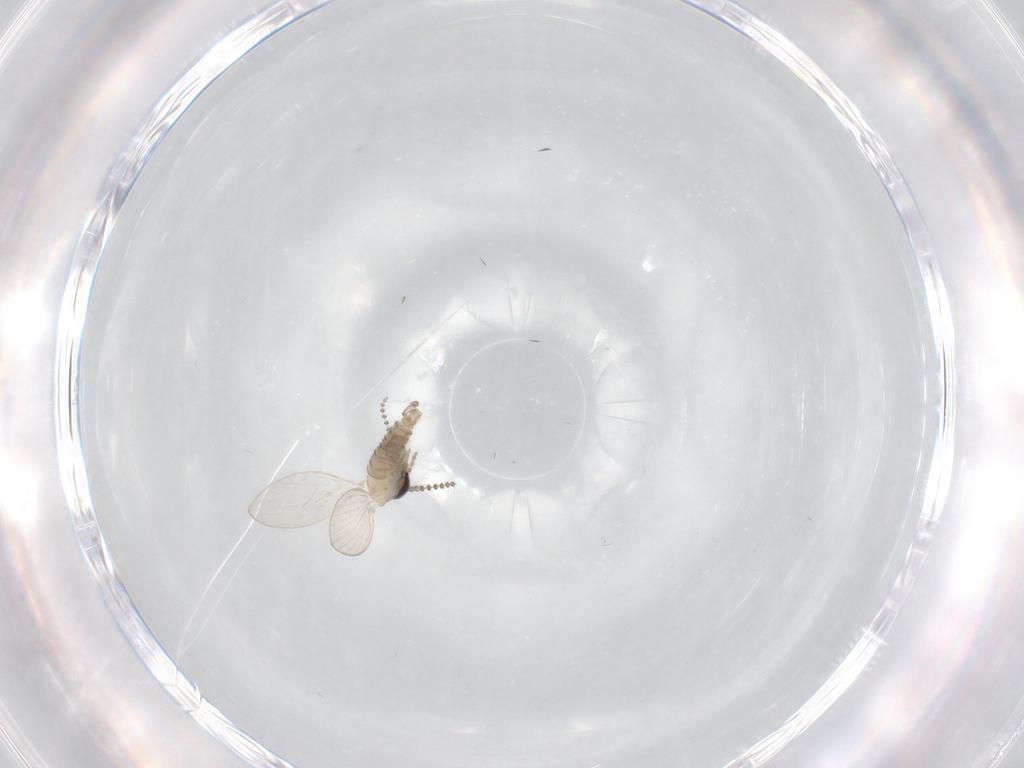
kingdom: Animalia
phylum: Arthropoda
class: Insecta
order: Diptera
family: Psychodidae
